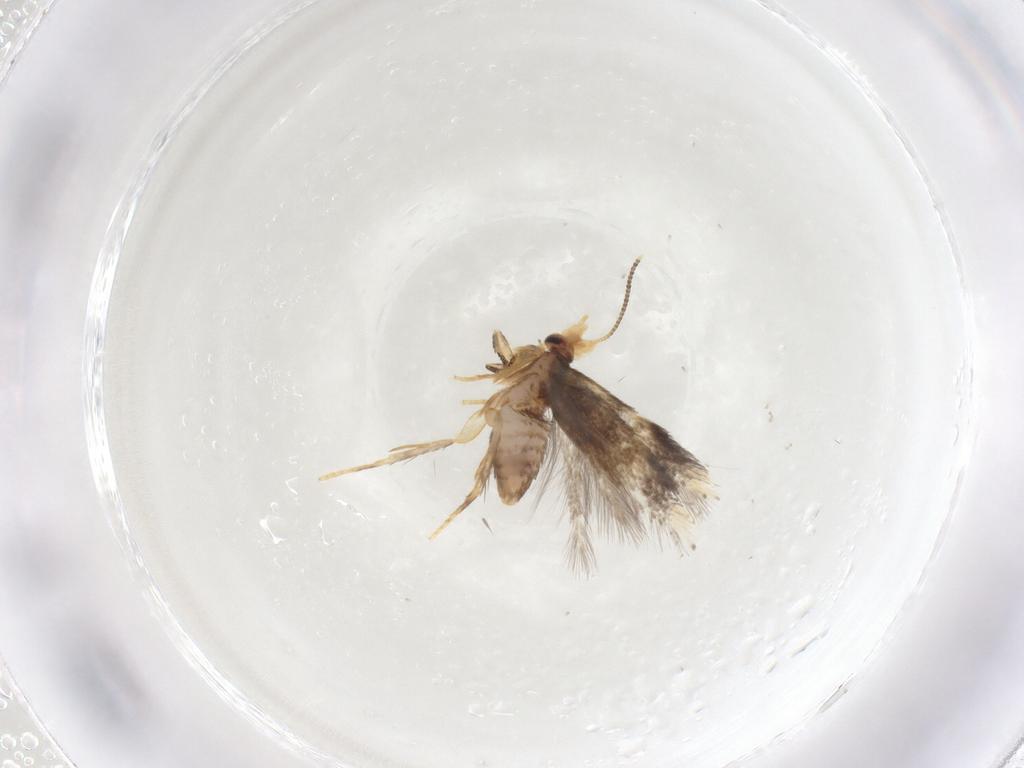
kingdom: Animalia
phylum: Arthropoda
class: Insecta
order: Lepidoptera
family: Nepticulidae
